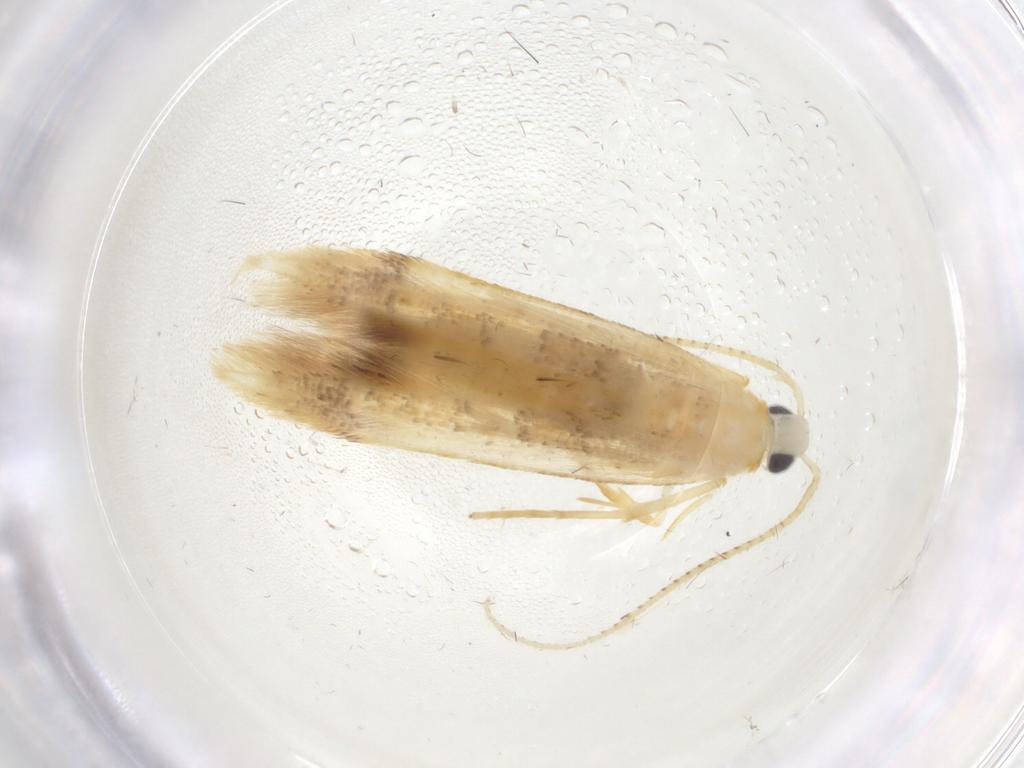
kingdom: Animalia
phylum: Arthropoda
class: Insecta
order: Lepidoptera
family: Oecophoridae
